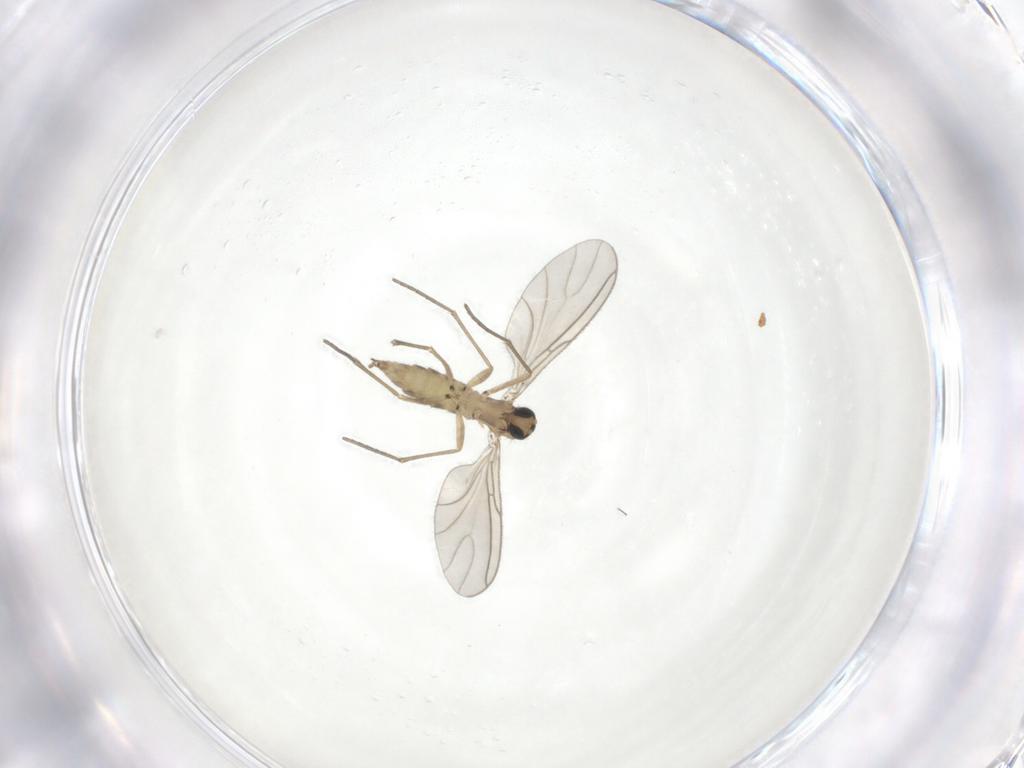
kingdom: Animalia
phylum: Arthropoda
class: Insecta
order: Diptera
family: Sciaridae
